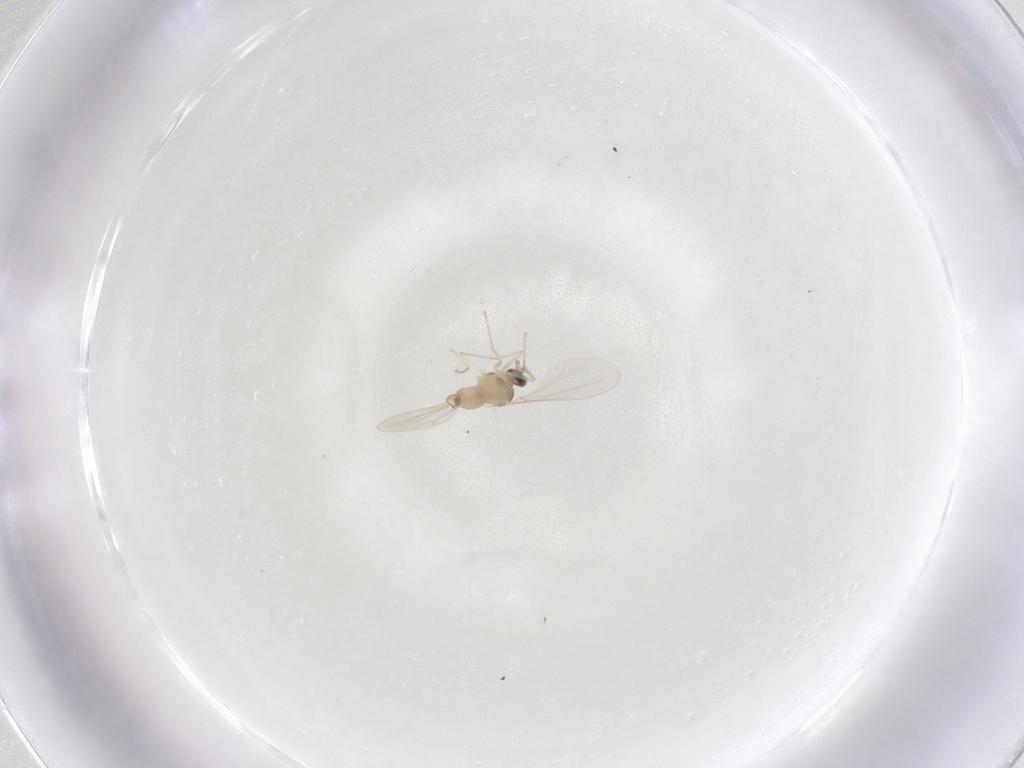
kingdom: Animalia
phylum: Arthropoda
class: Insecta
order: Diptera
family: Cecidomyiidae
